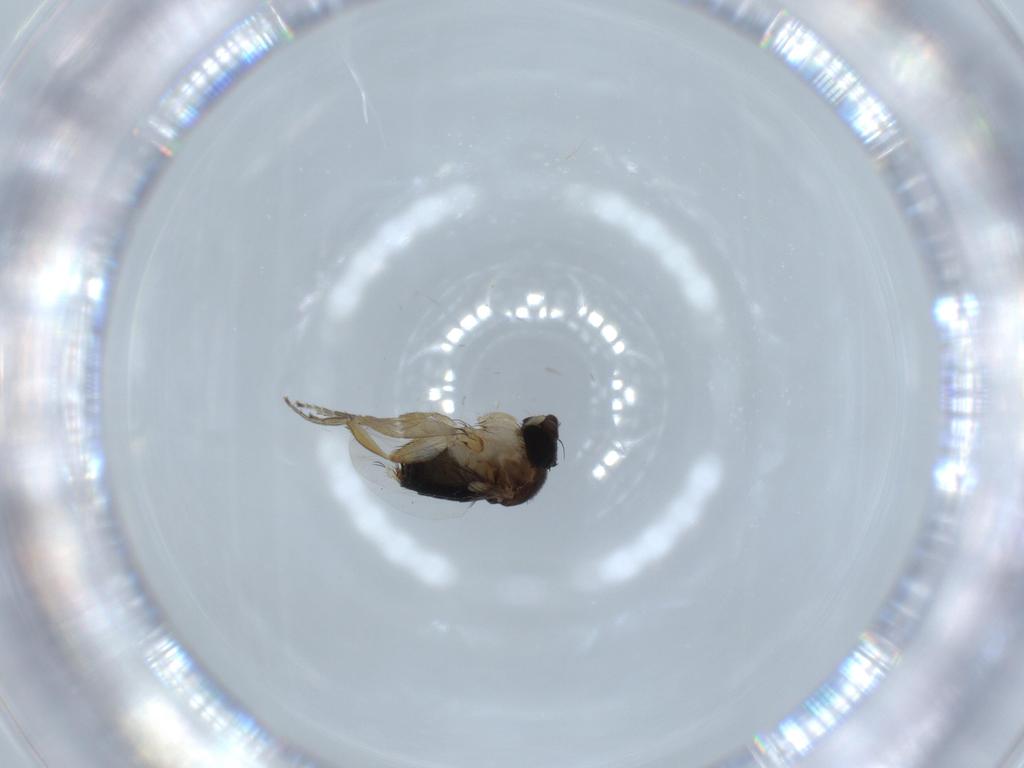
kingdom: Animalia
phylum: Arthropoda
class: Insecta
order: Diptera
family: Phoridae
